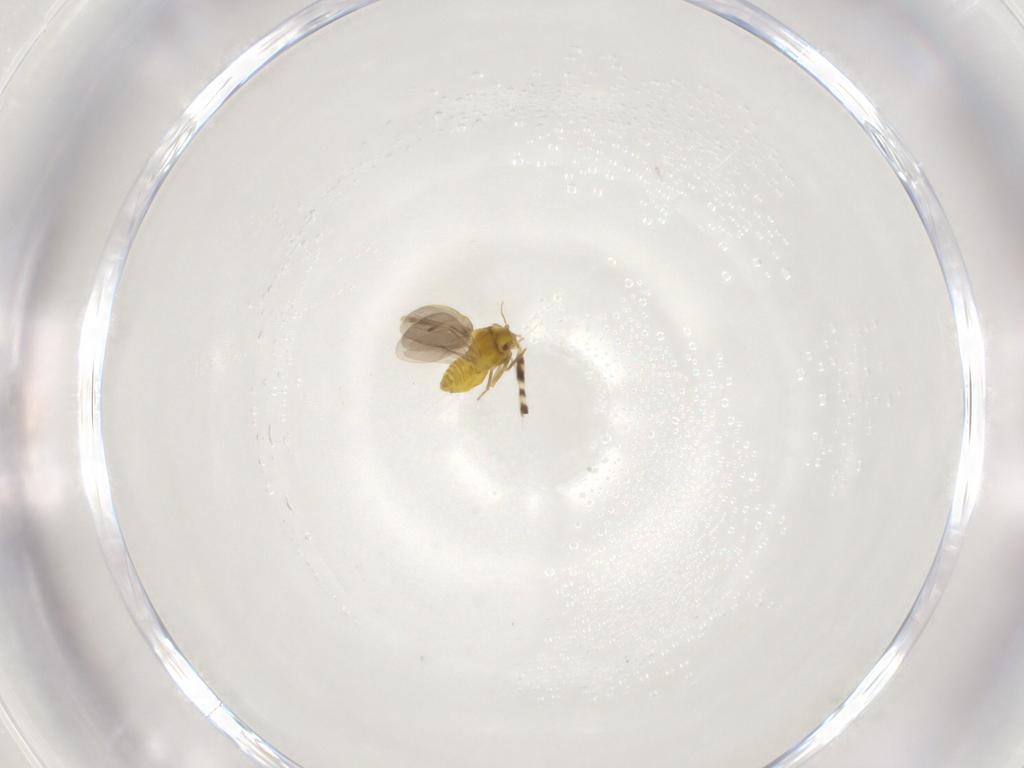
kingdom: Animalia
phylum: Arthropoda
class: Insecta
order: Hemiptera
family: Aleyrodidae
